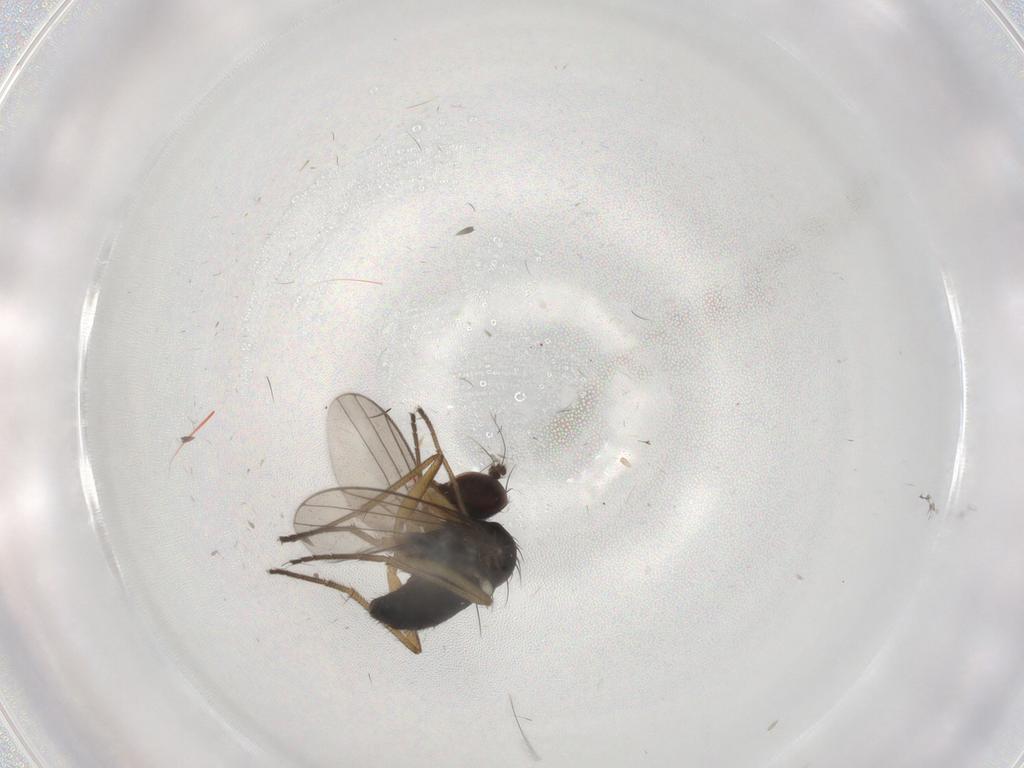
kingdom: Animalia
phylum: Arthropoda
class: Insecta
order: Diptera
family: Dolichopodidae
